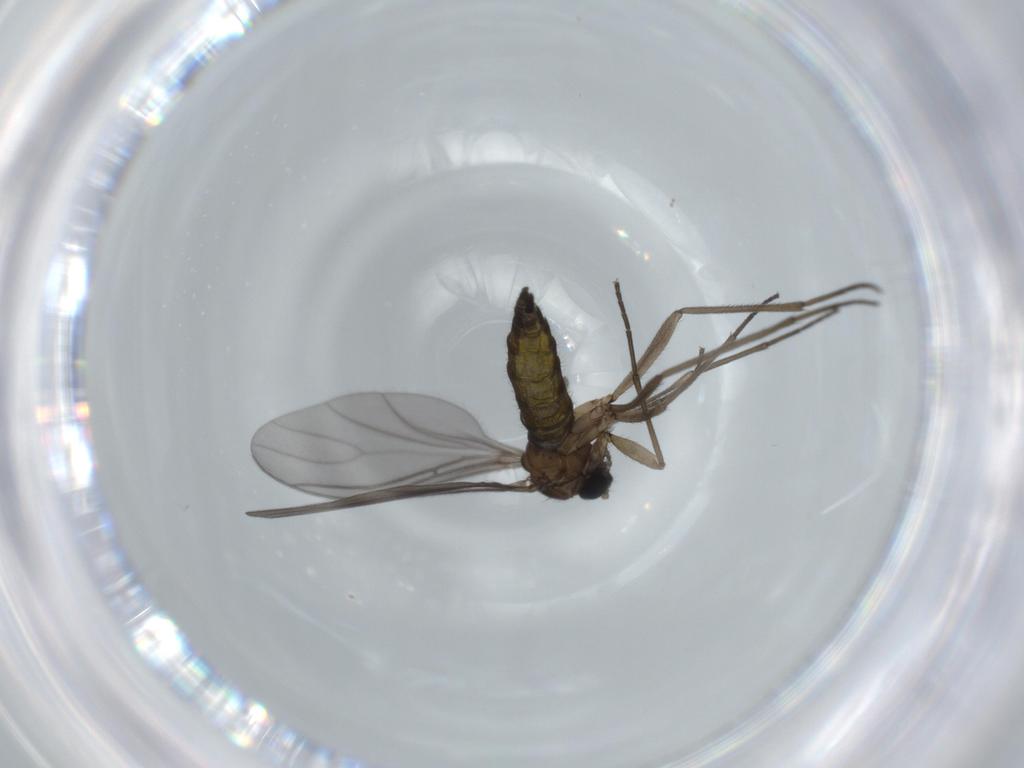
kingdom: Animalia
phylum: Arthropoda
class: Insecta
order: Diptera
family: Sciaridae
